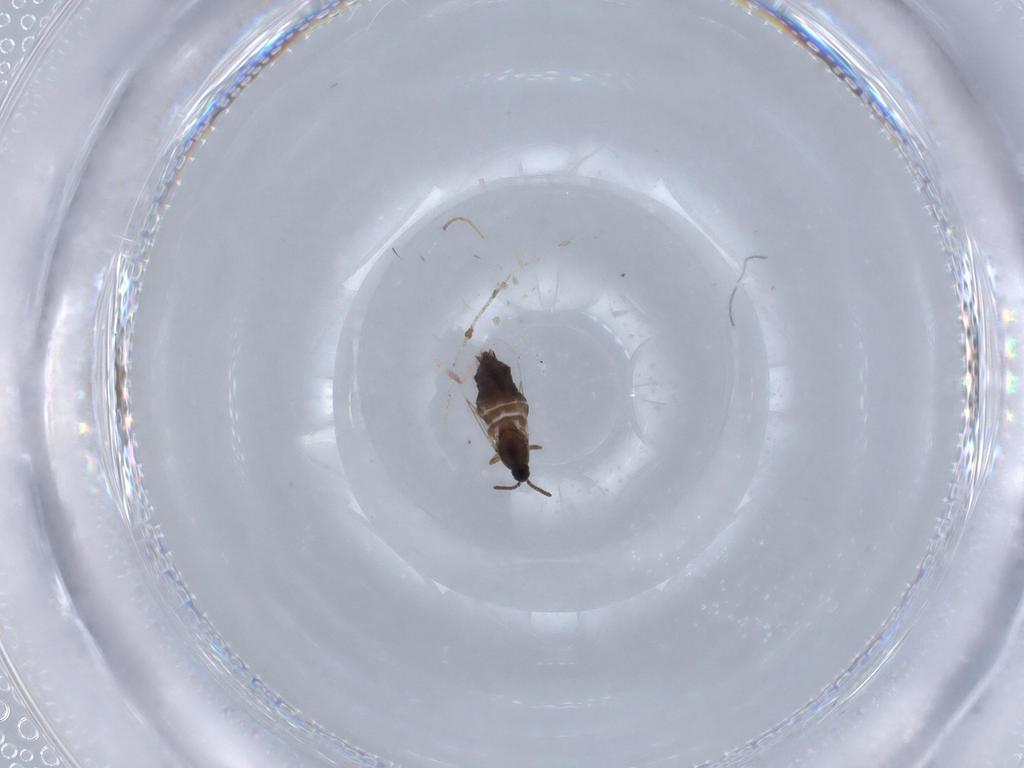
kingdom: Animalia
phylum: Arthropoda
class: Insecta
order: Diptera
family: Scatopsidae
